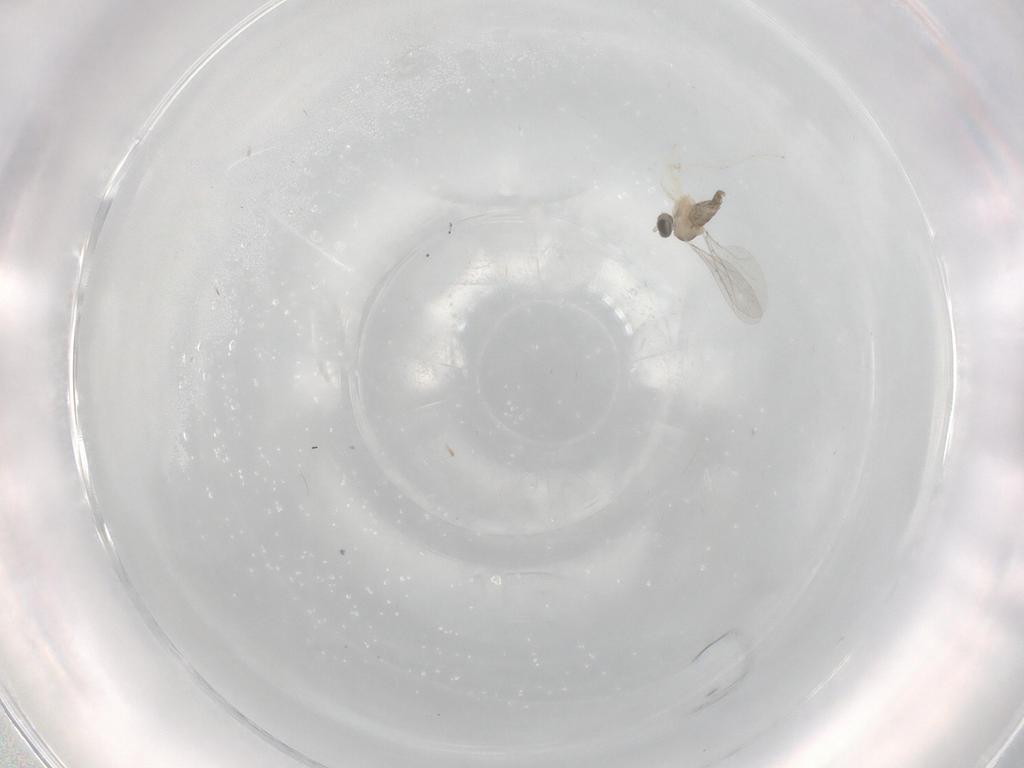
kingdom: Animalia
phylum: Arthropoda
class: Insecta
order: Diptera
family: Cecidomyiidae
